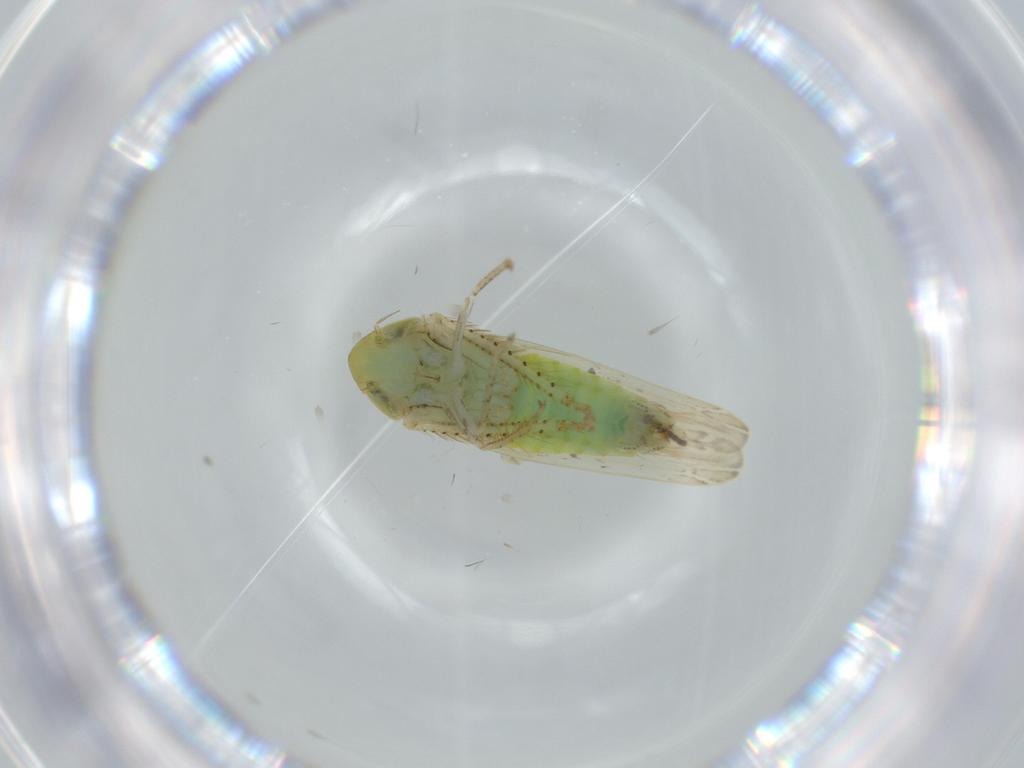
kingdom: Animalia
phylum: Arthropoda
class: Insecta
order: Hemiptera
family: Cicadellidae
